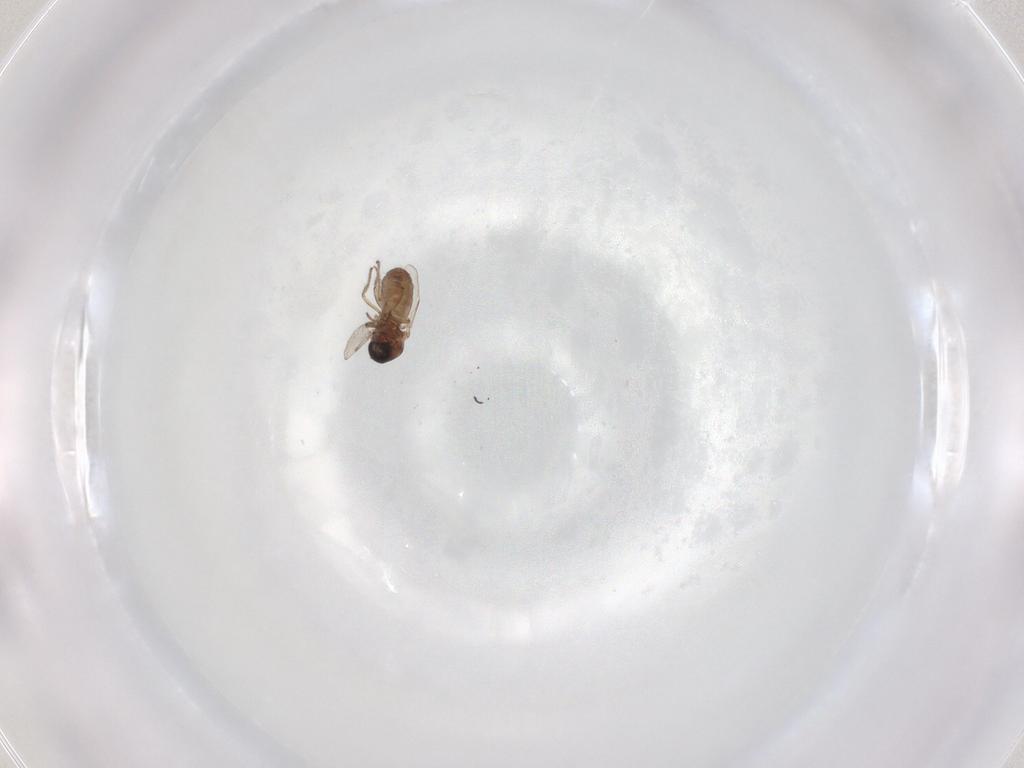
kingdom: Animalia
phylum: Arthropoda
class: Insecta
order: Diptera
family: Ceratopogonidae
